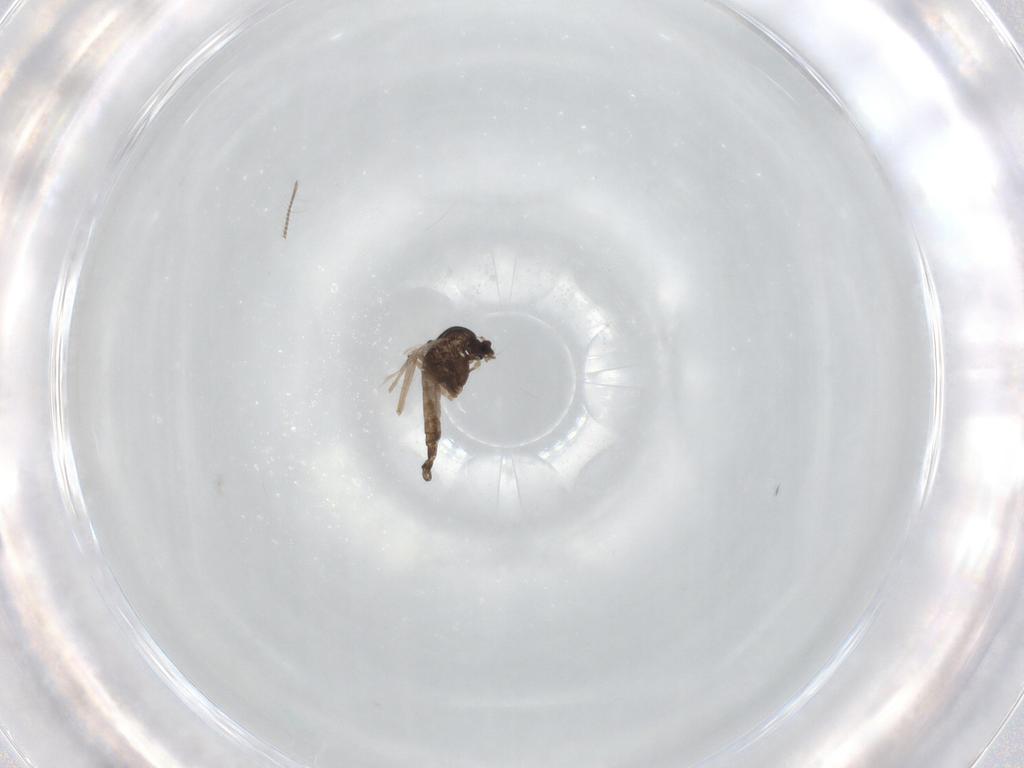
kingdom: Animalia
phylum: Arthropoda
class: Insecta
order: Diptera
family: Chironomidae
